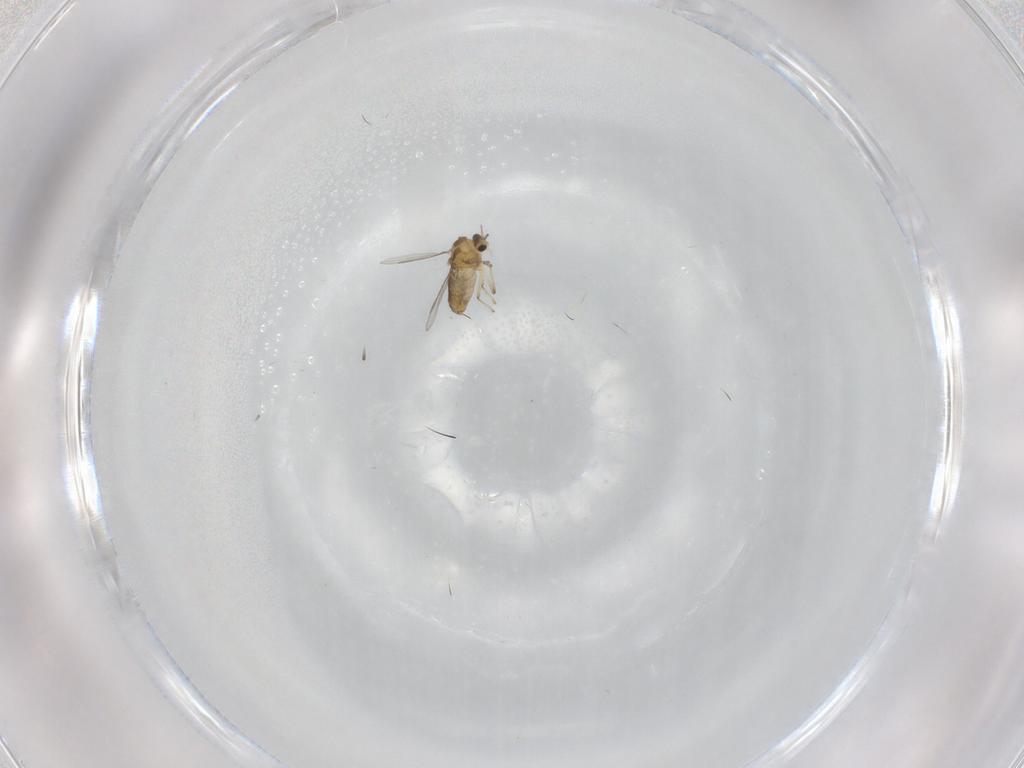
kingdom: Animalia
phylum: Arthropoda
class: Insecta
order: Diptera
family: Chironomidae
